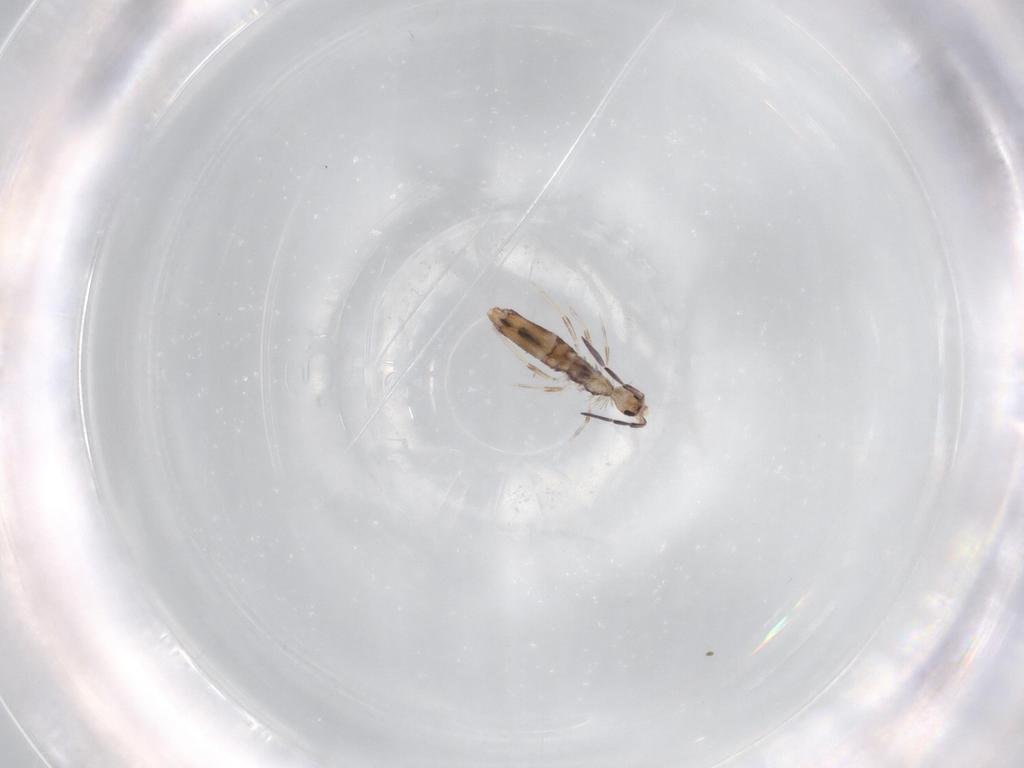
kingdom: Animalia
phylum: Arthropoda
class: Collembola
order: Poduromorpha
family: Hypogastruridae
